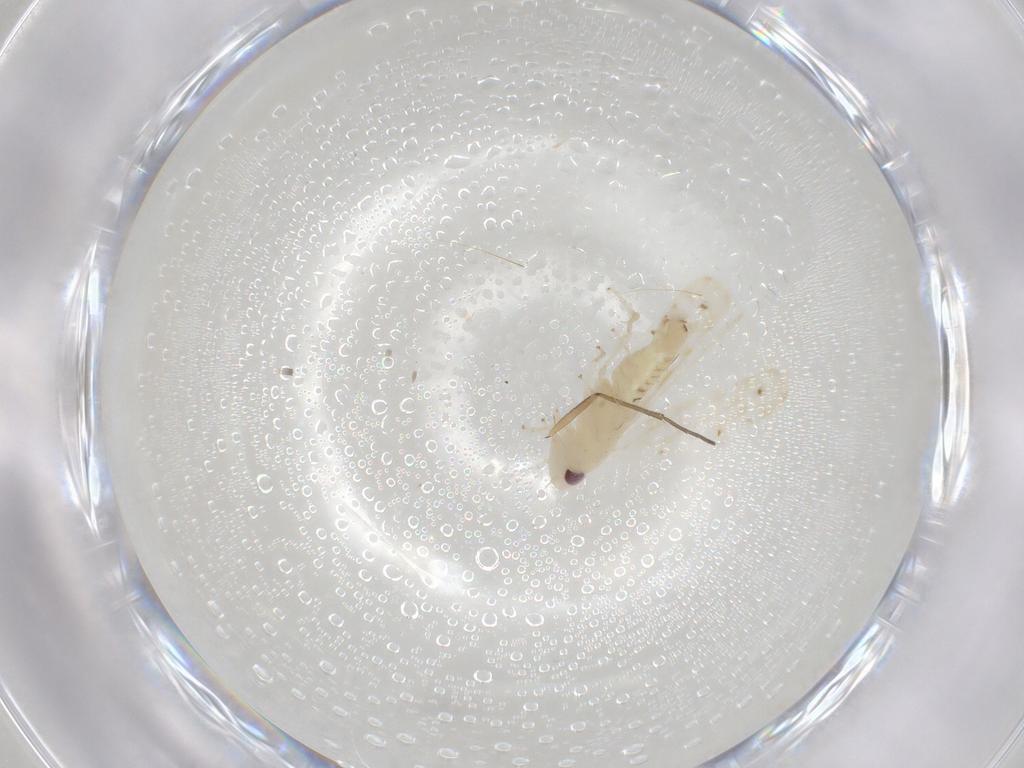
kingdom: Animalia
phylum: Arthropoda
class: Insecta
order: Hemiptera
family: Cicadellidae
